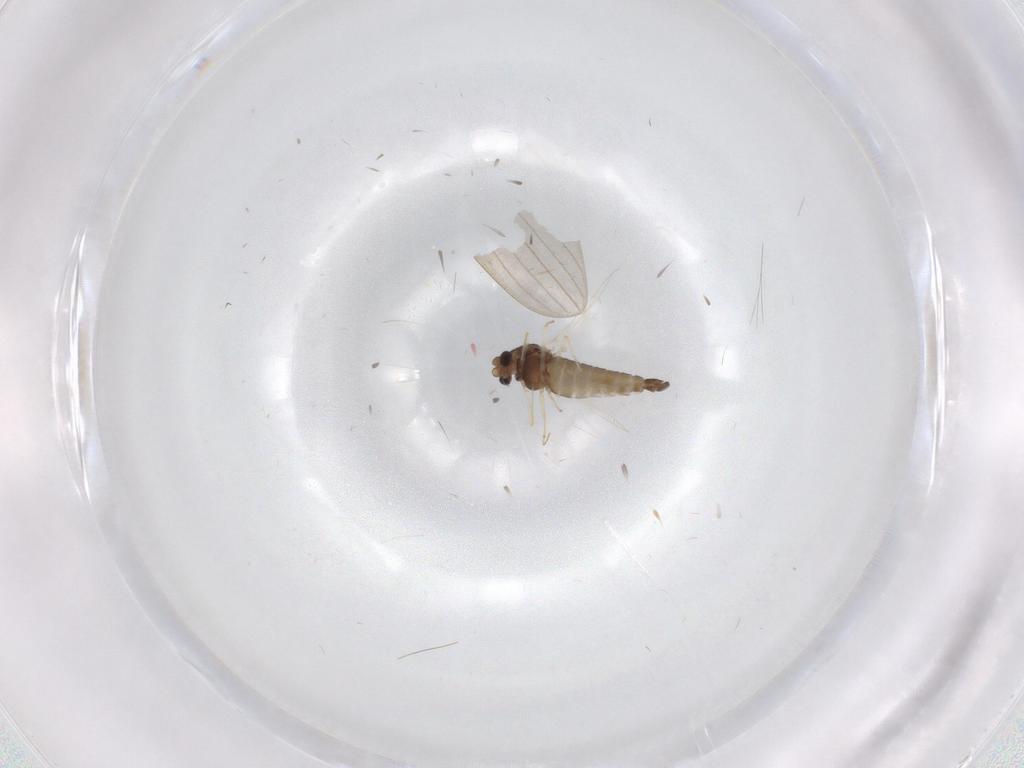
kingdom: Animalia
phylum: Arthropoda
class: Insecta
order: Diptera
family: Chironomidae
